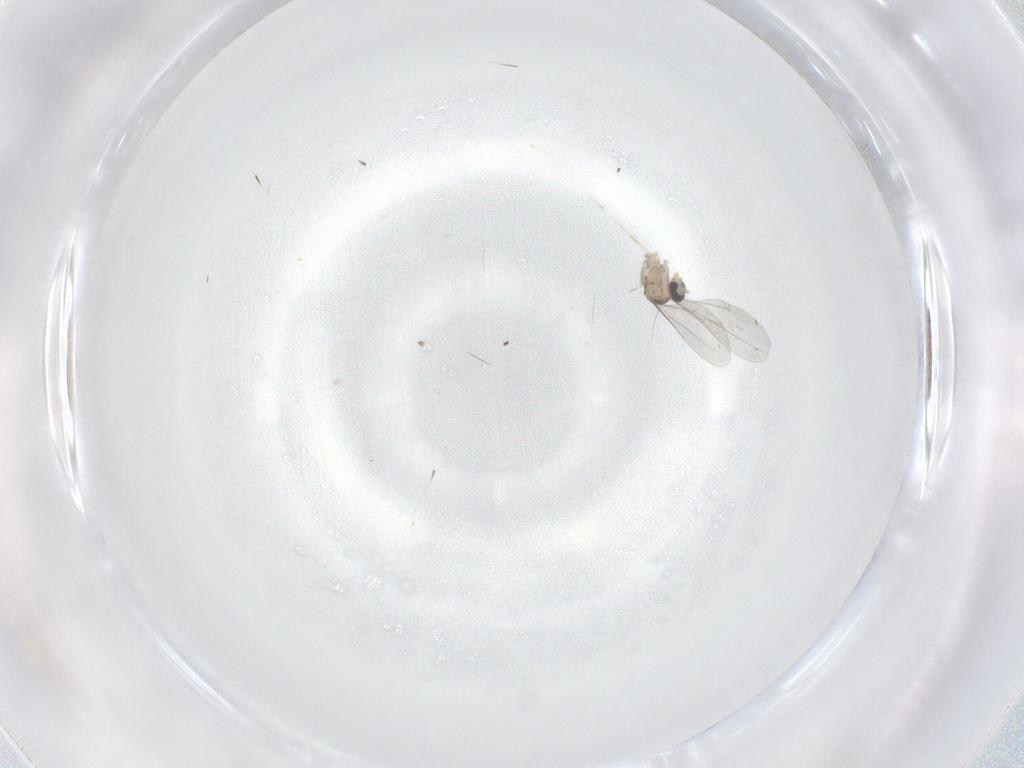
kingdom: Animalia
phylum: Arthropoda
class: Insecta
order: Diptera
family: Cecidomyiidae
